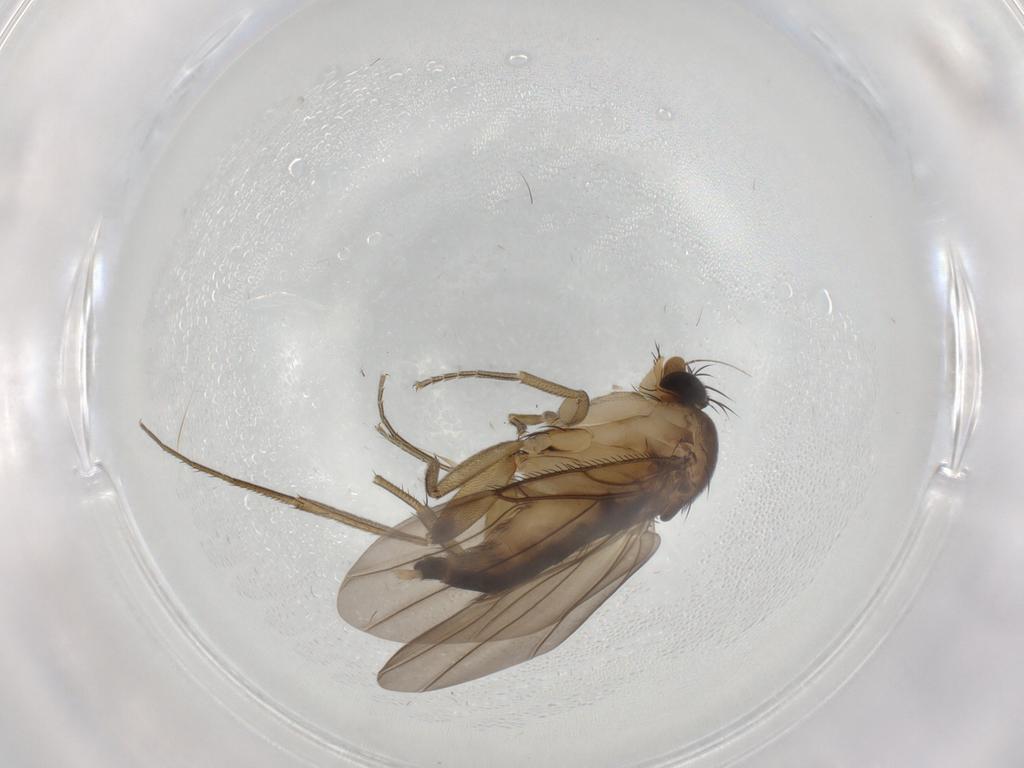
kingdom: Animalia
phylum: Arthropoda
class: Insecta
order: Diptera
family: Phoridae
